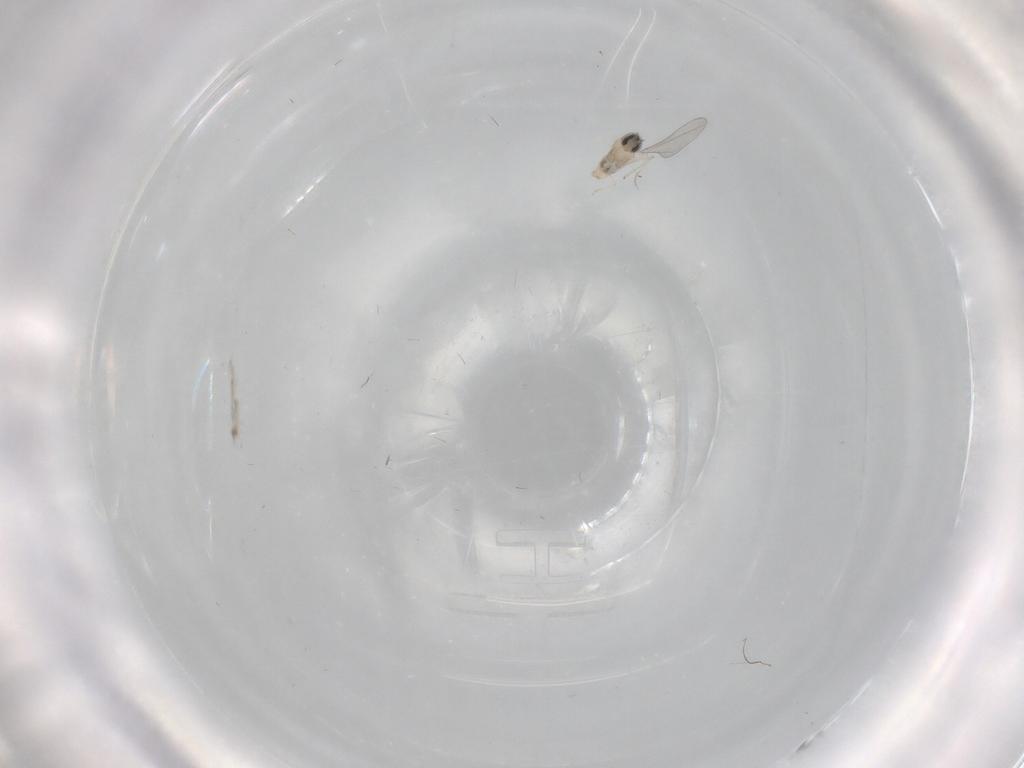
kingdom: Animalia
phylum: Arthropoda
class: Insecta
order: Diptera
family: Cecidomyiidae
